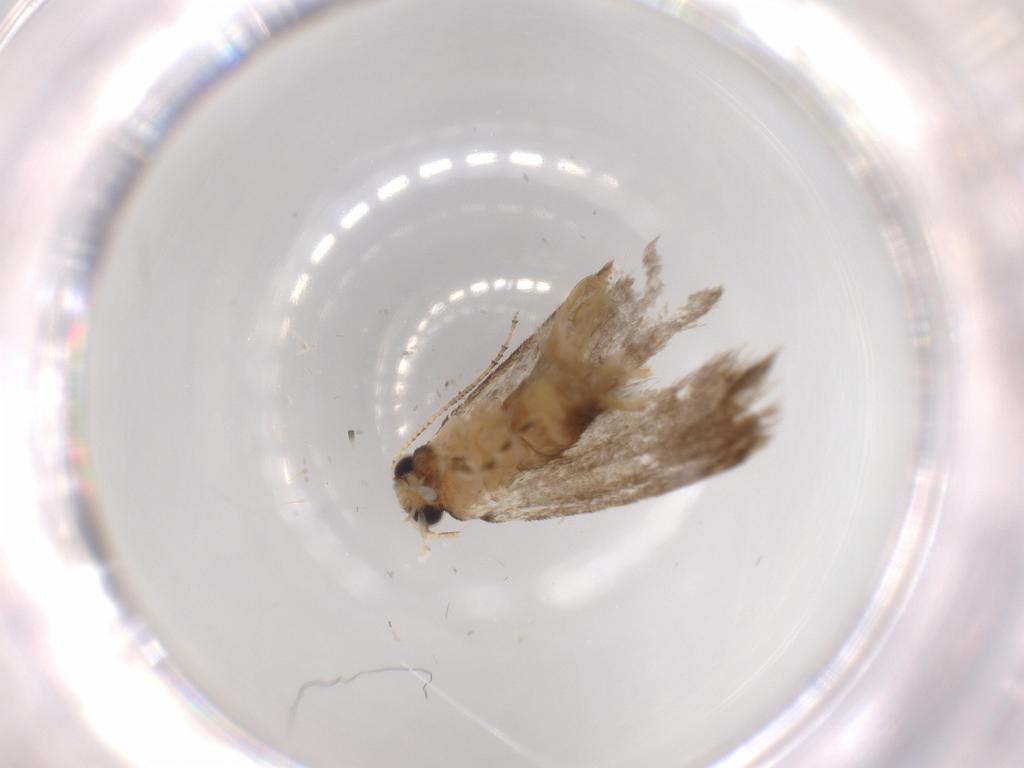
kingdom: Animalia
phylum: Arthropoda
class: Insecta
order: Lepidoptera
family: Tineidae
